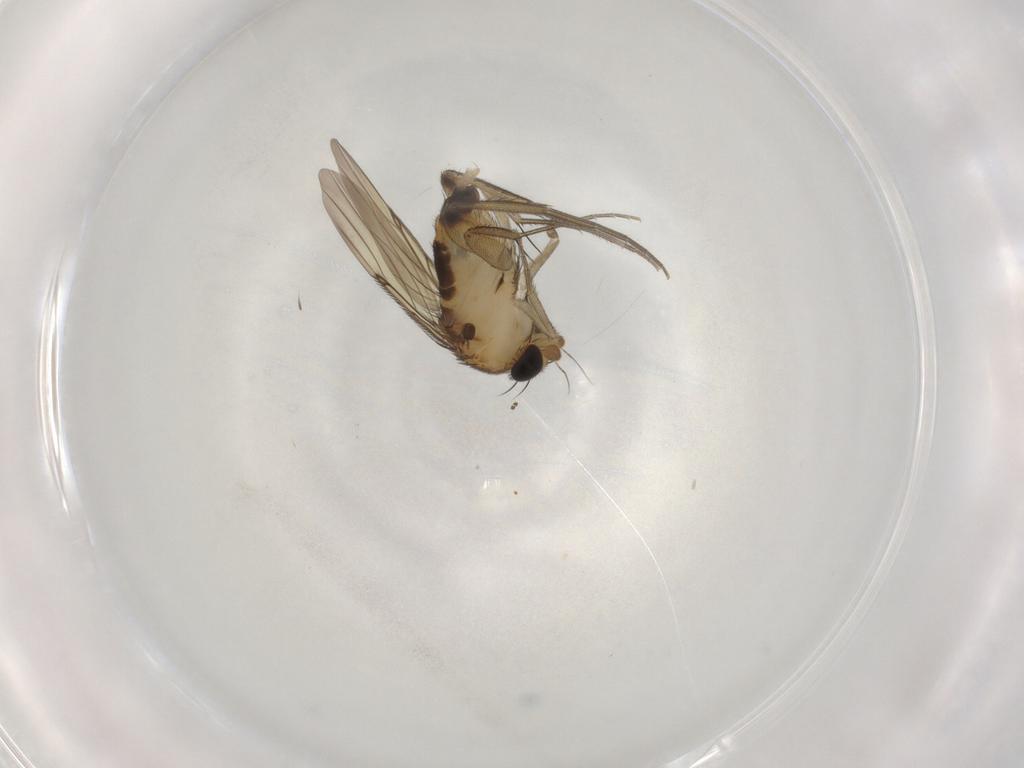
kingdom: Animalia
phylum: Arthropoda
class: Insecta
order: Diptera
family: Phoridae
